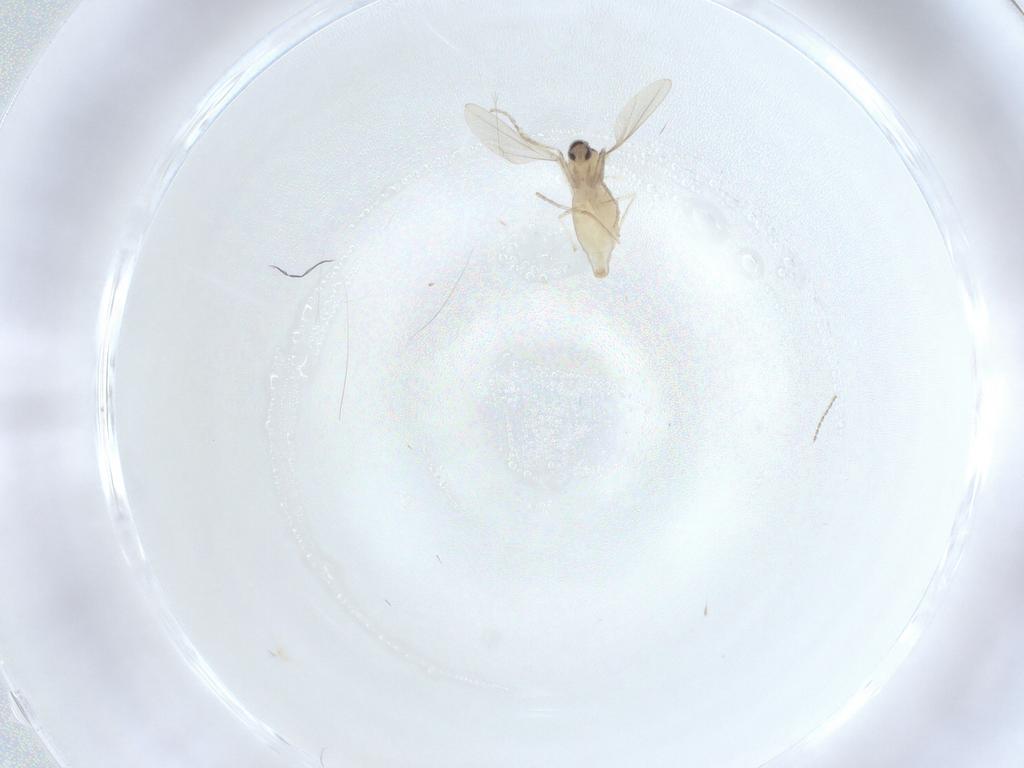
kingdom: Animalia
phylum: Arthropoda
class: Insecta
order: Diptera
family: Cecidomyiidae
